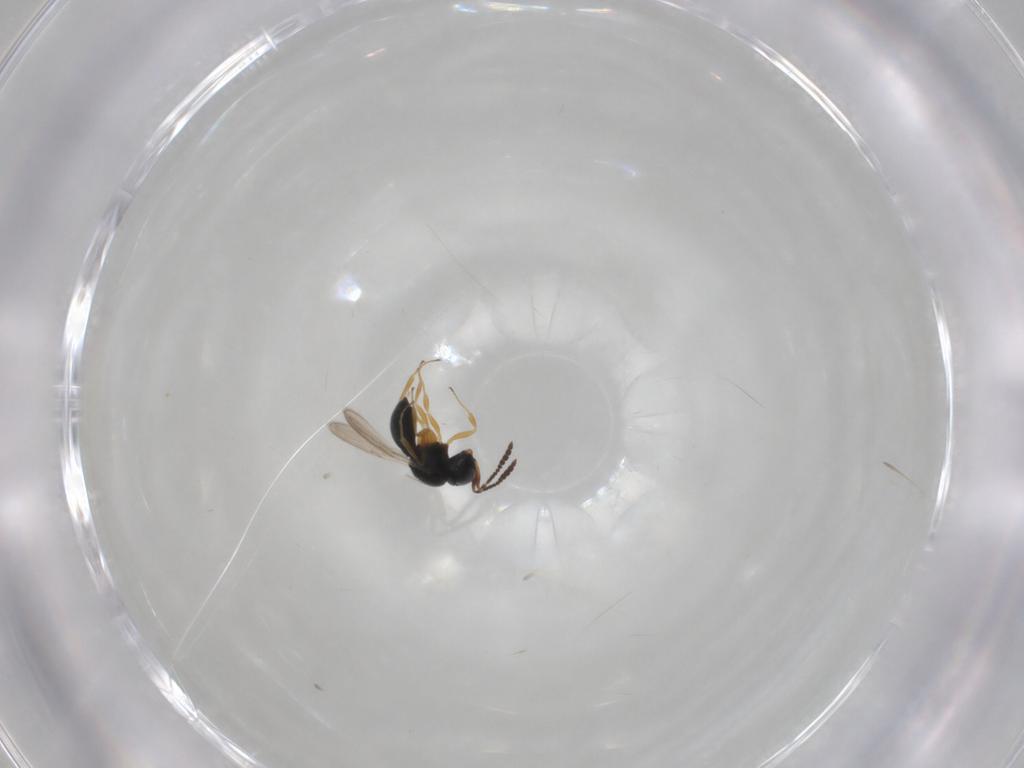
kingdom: Animalia
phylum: Arthropoda
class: Insecta
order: Hymenoptera
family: Scelionidae
